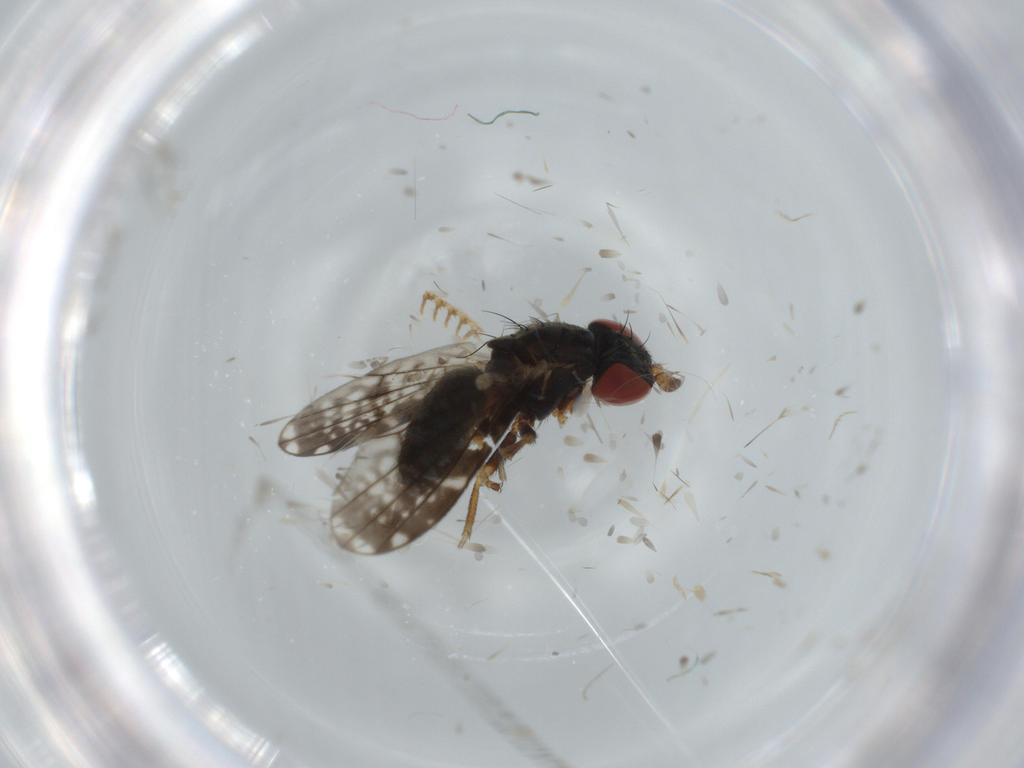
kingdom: Animalia
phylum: Arthropoda
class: Insecta
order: Diptera
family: Chamaemyiidae
